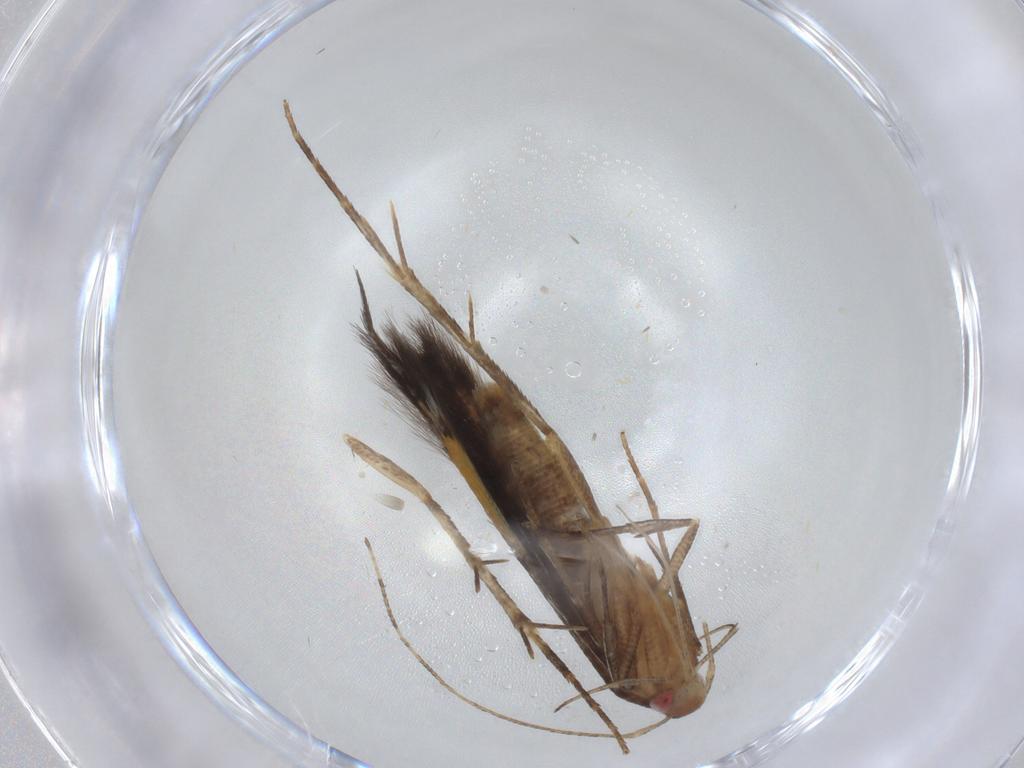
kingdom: Animalia
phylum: Arthropoda
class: Insecta
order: Lepidoptera
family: Cosmopterigidae
